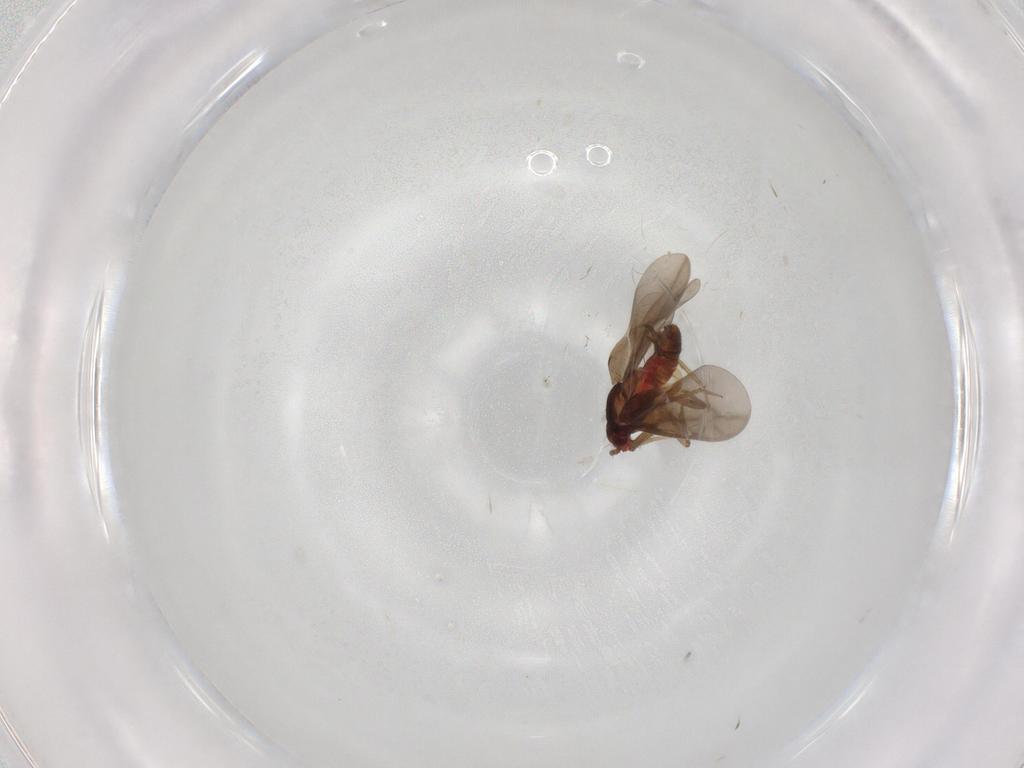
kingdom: Animalia
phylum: Arthropoda
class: Insecta
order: Hemiptera
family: Ceratocombidae
